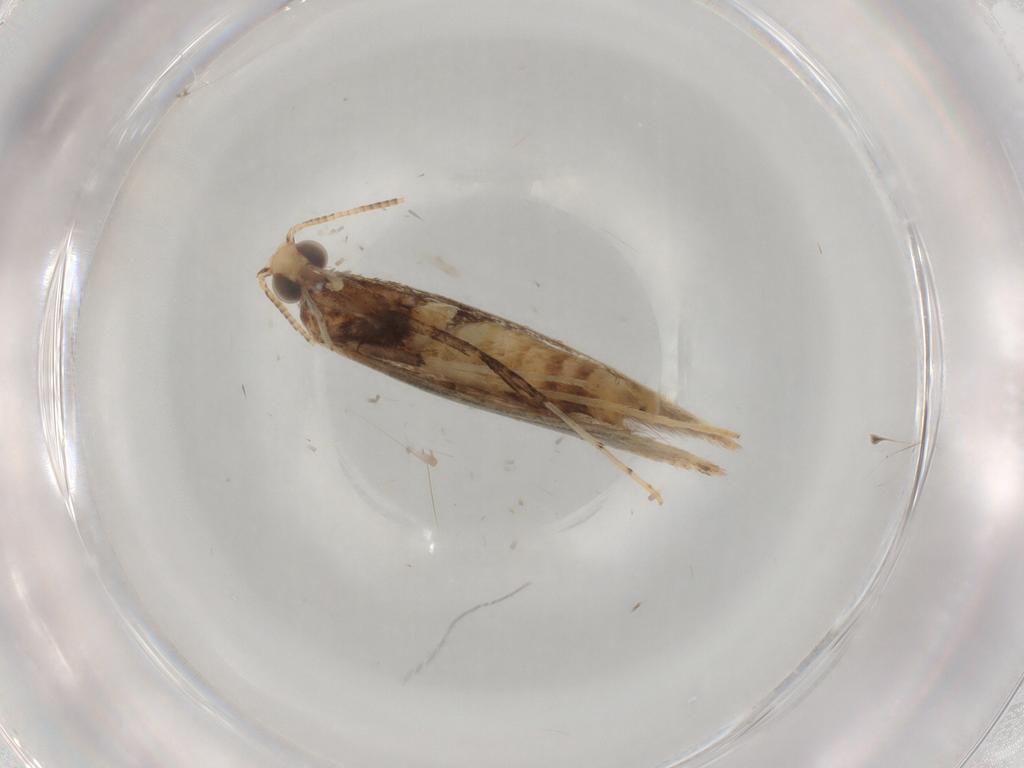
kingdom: Animalia
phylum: Arthropoda
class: Insecta
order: Lepidoptera
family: Gracillariidae
